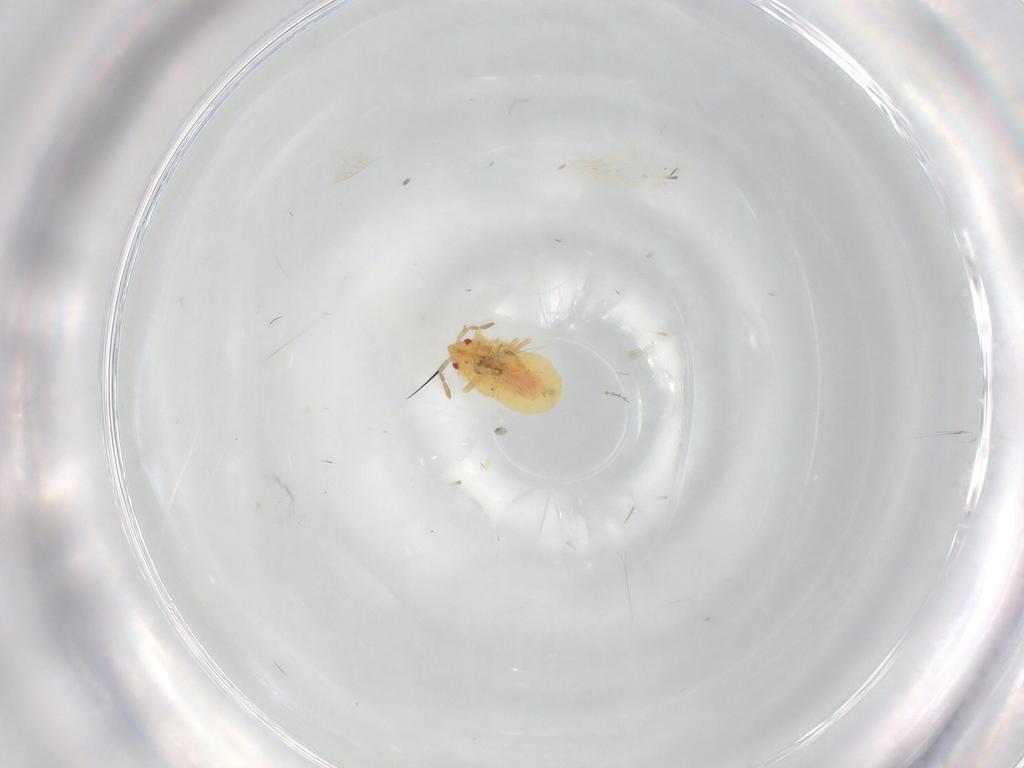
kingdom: Animalia
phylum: Arthropoda
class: Insecta
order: Hemiptera
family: Anthocoridae
